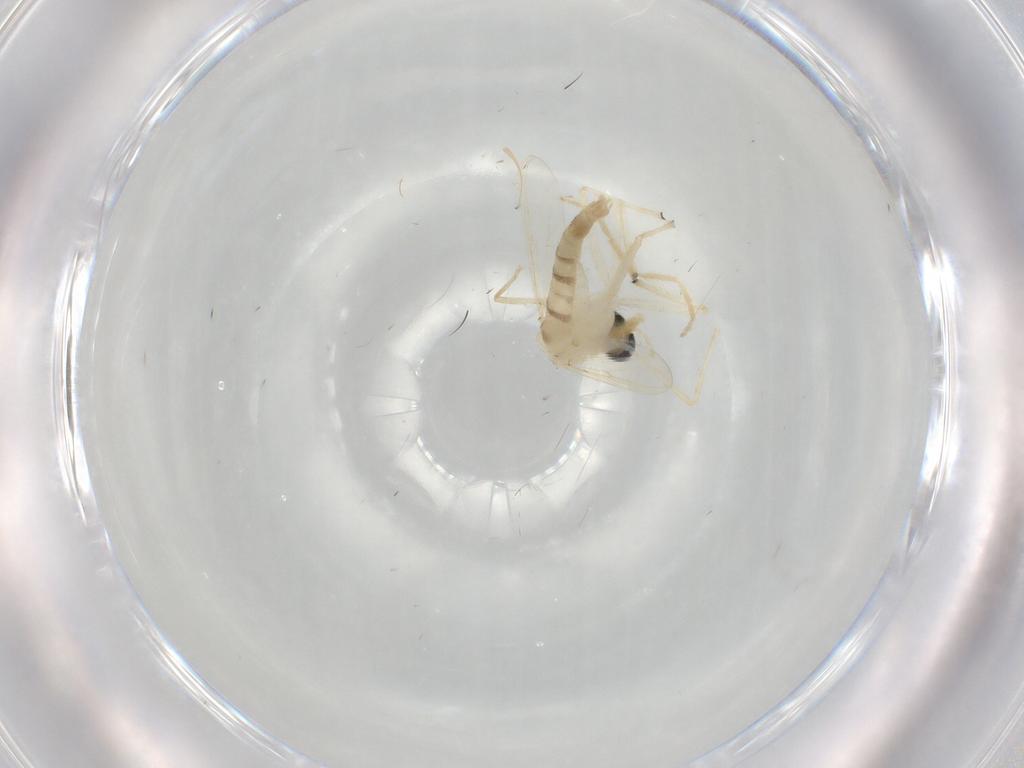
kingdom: Animalia
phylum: Arthropoda
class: Insecta
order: Diptera
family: Chironomidae
